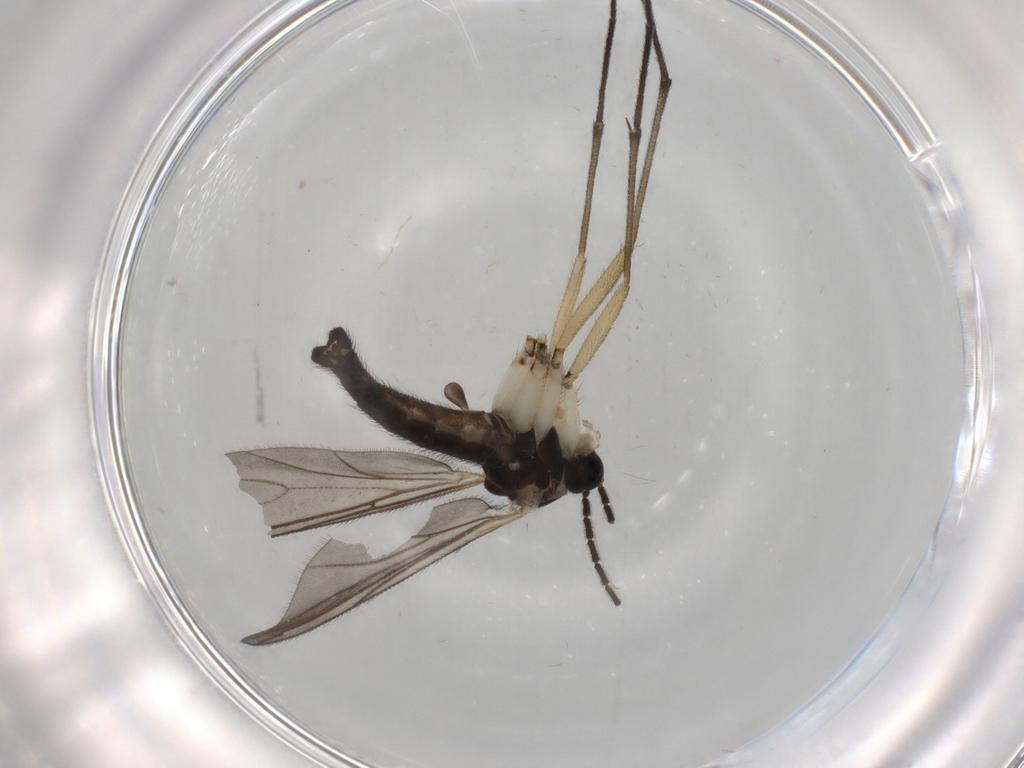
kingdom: Animalia
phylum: Arthropoda
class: Insecta
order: Diptera
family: Sciaridae
